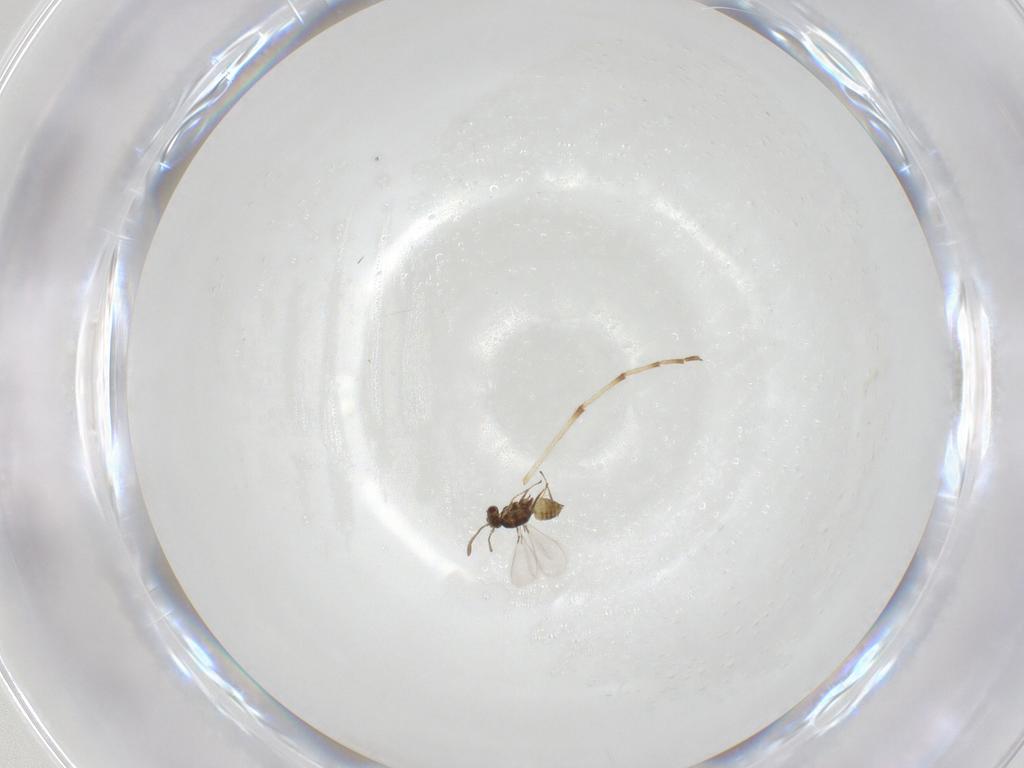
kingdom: Animalia
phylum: Arthropoda
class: Insecta
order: Hymenoptera
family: Mymaridae
